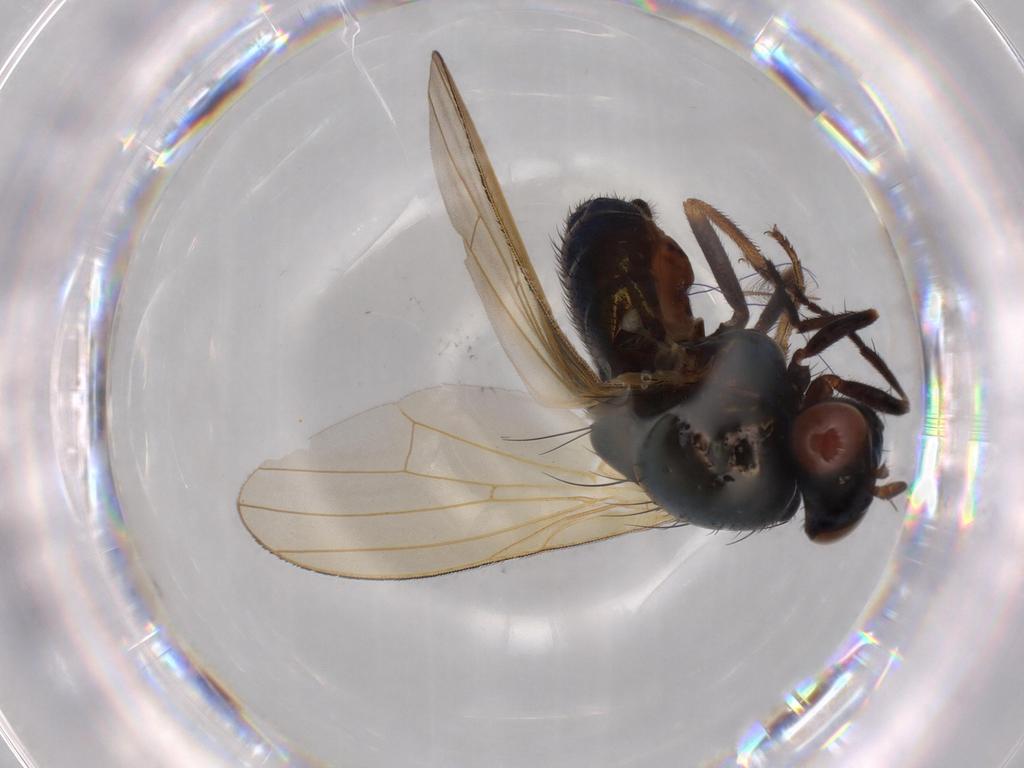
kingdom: Animalia
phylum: Arthropoda
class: Insecta
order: Diptera
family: Lauxaniidae
